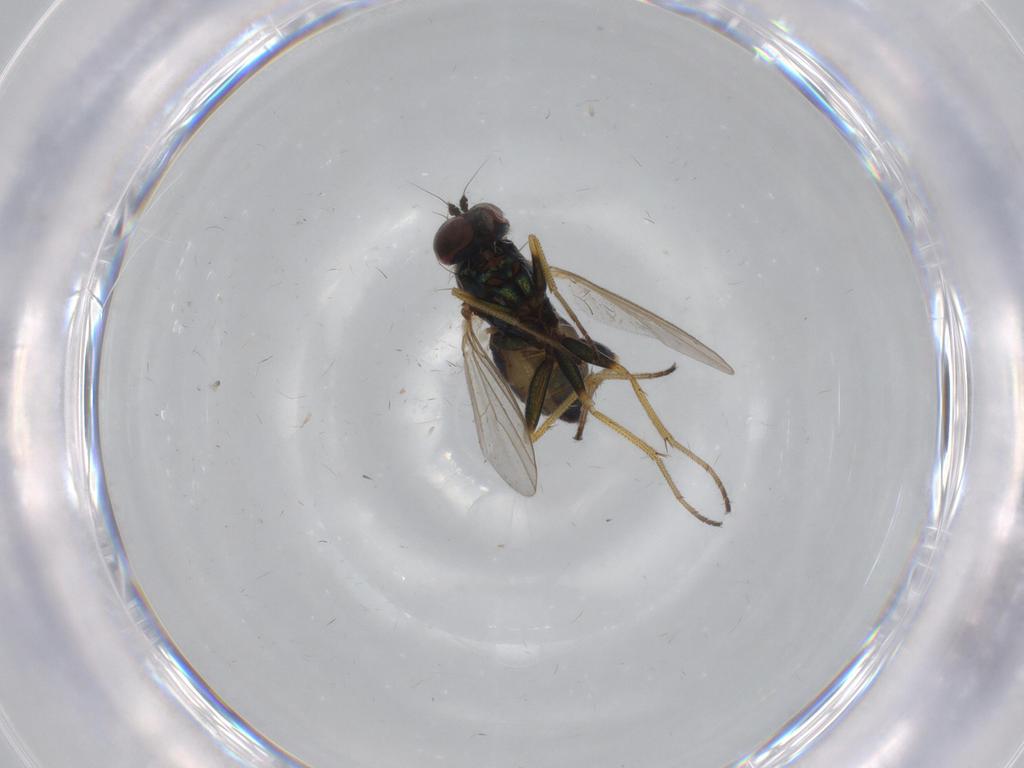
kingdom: Animalia
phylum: Arthropoda
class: Insecta
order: Diptera
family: Dolichopodidae
